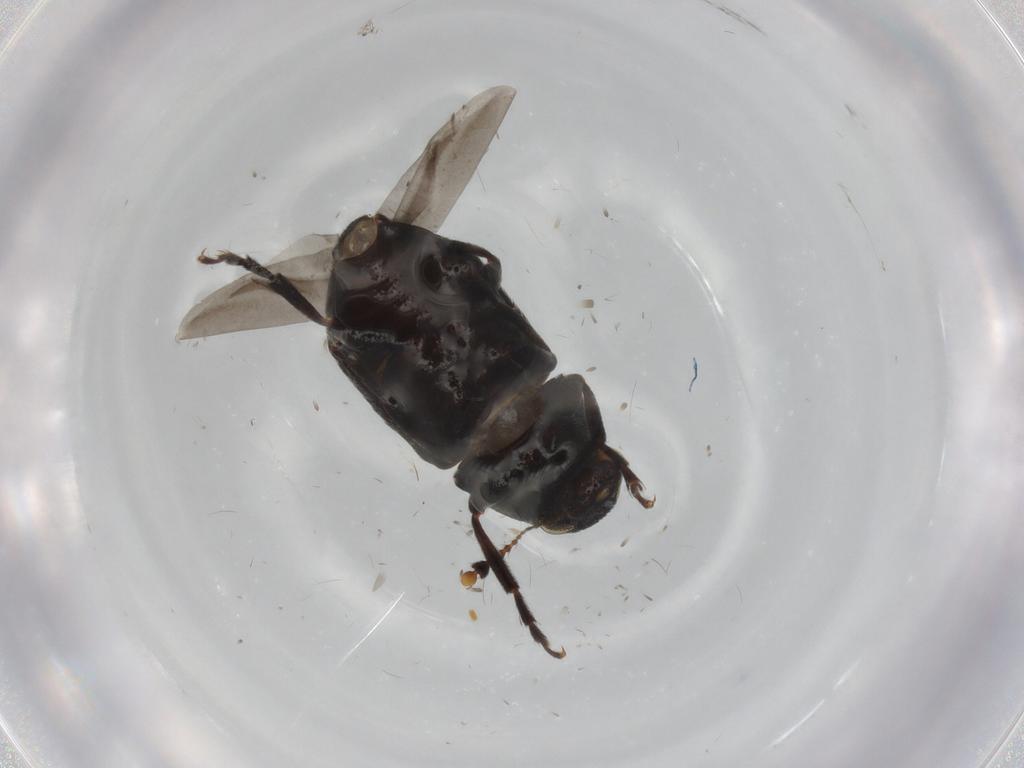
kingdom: Animalia
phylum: Arthropoda
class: Insecta
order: Coleoptera
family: Anthribidae
